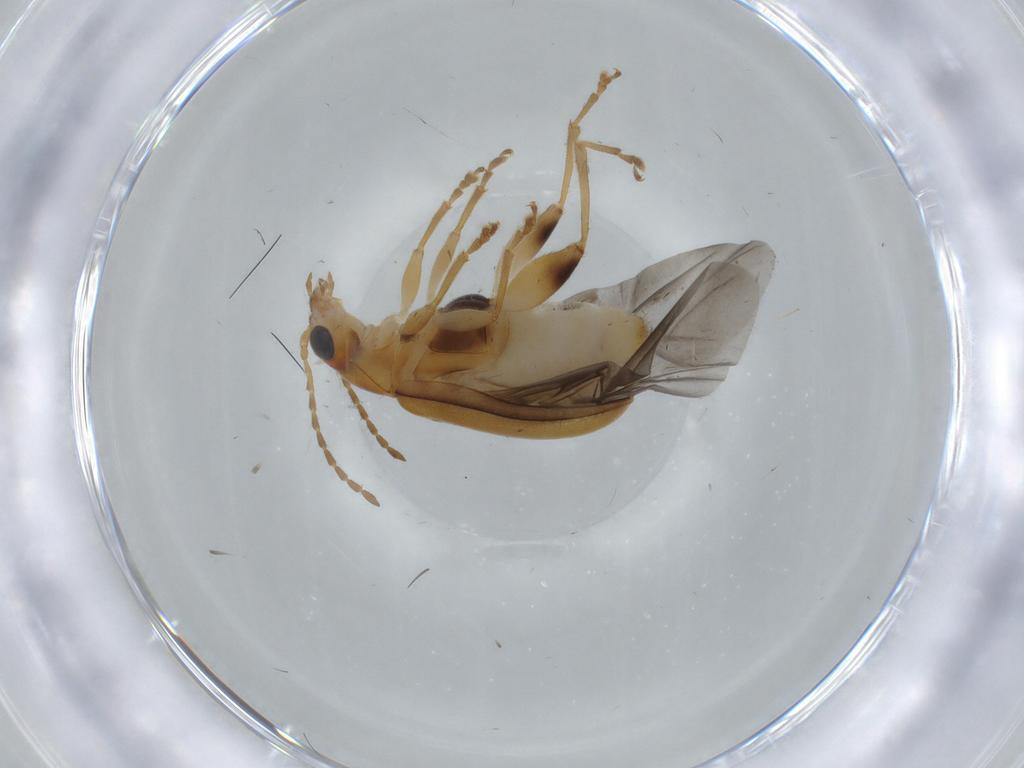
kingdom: Animalia
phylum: Arthropoda
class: Insecta
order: Coleoptera
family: Chrysomelidae
